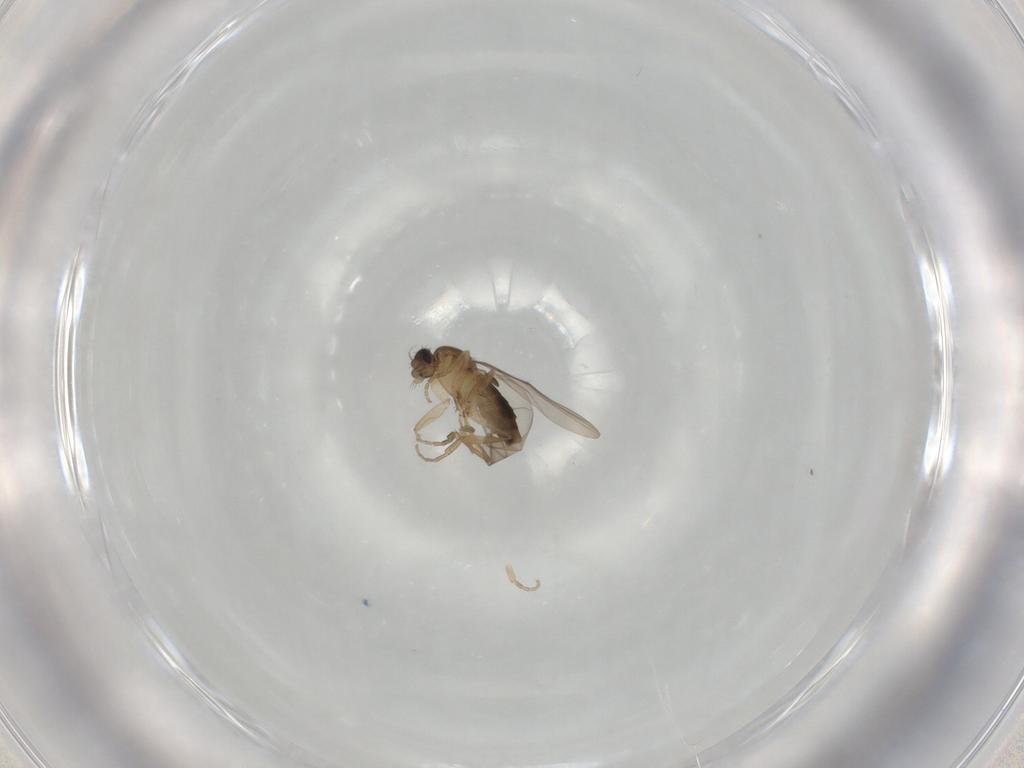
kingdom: Animalia
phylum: Arthropoda
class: Insecta
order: Diptera
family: Phoridae
